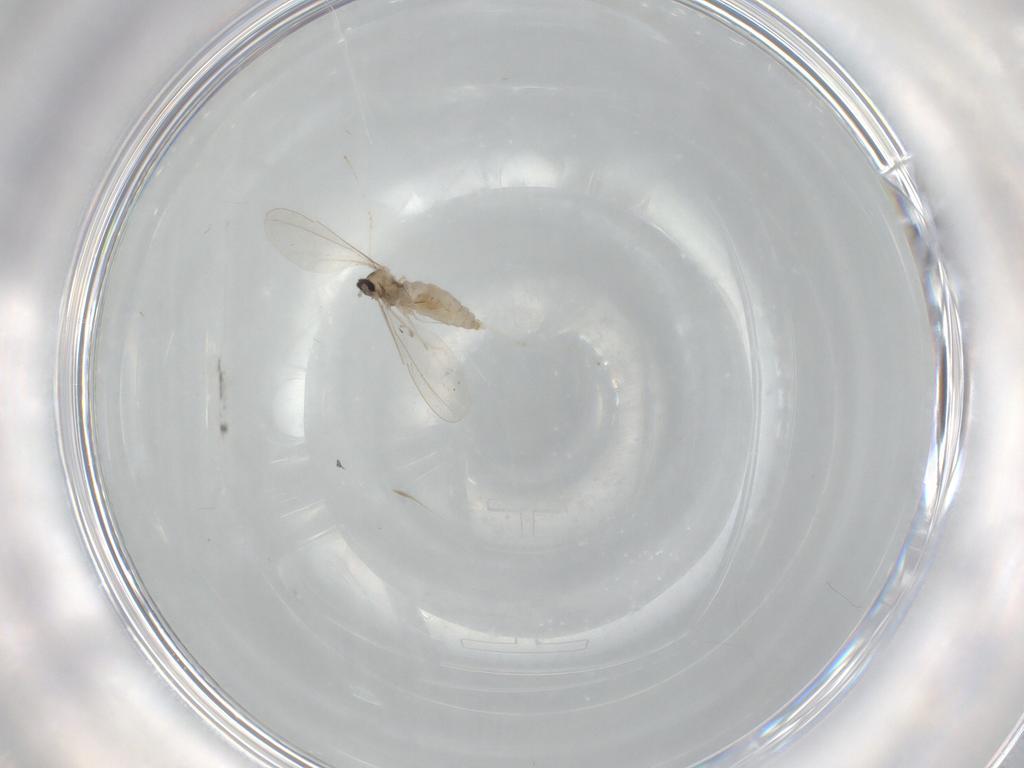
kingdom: Animalia
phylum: Arthropoda
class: Insecta
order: Diptera
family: Cecidomyiidae
